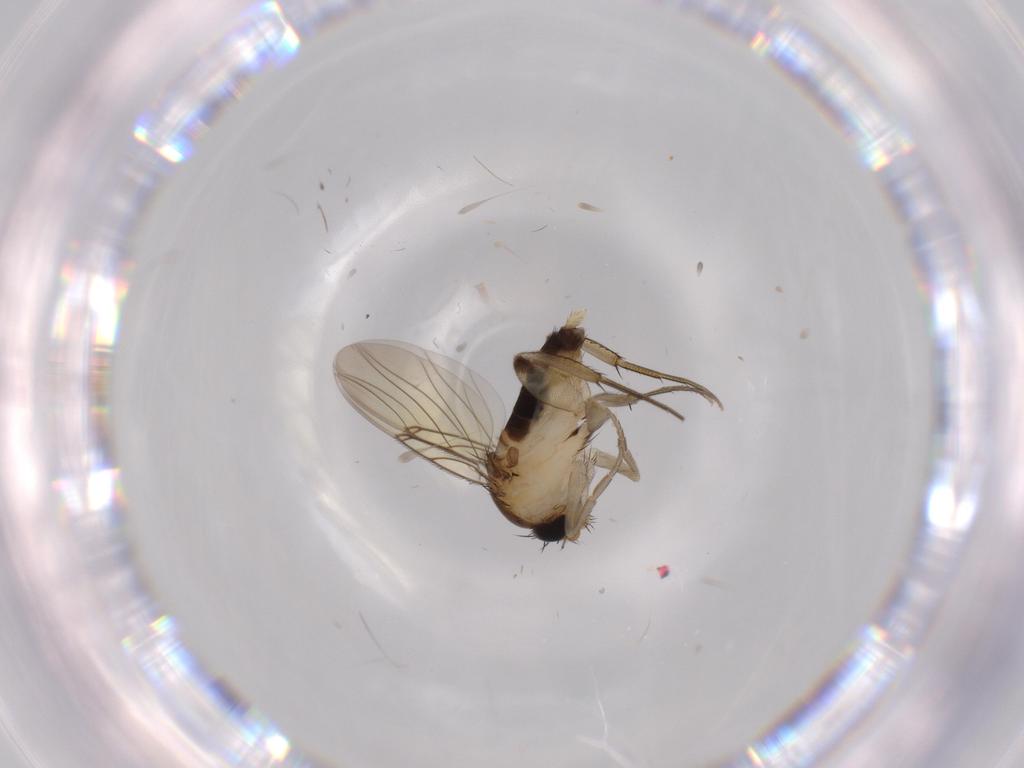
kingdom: Animalia
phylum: Arthropoda
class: Insecta
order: Diptera
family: Phoridae
